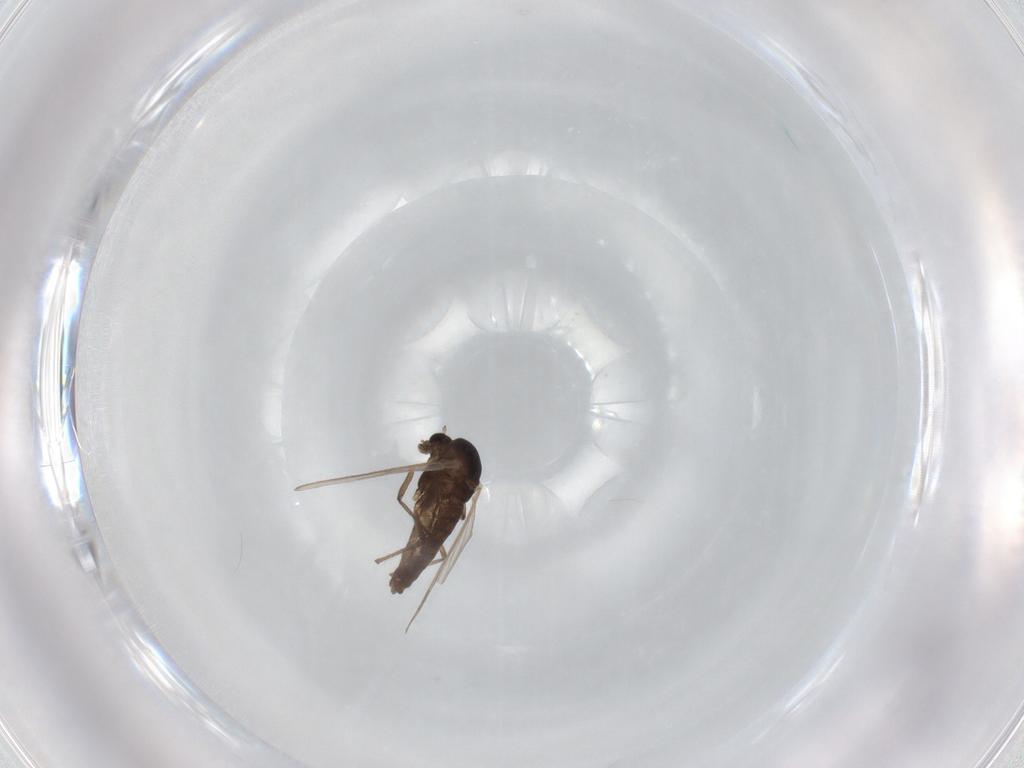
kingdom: Animalia
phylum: Arthropoda
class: Insecta
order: Diptera
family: Chironomidae
